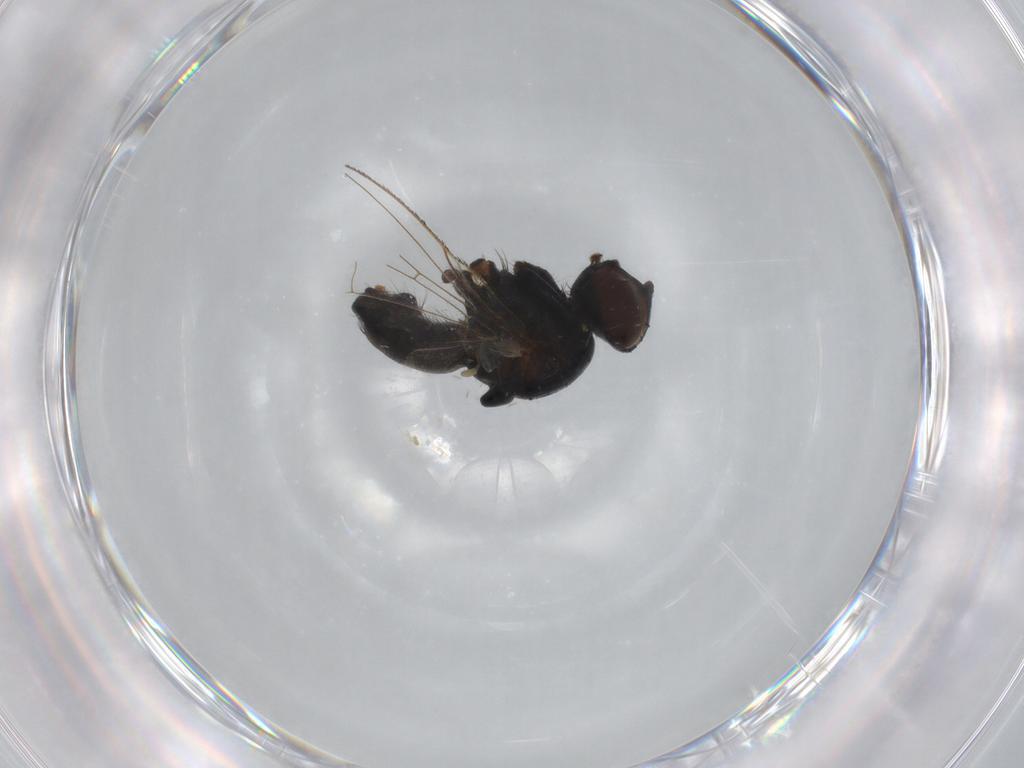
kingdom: Animalia
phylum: Arthropoda
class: Insecta
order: Diptera
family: Muscidae
